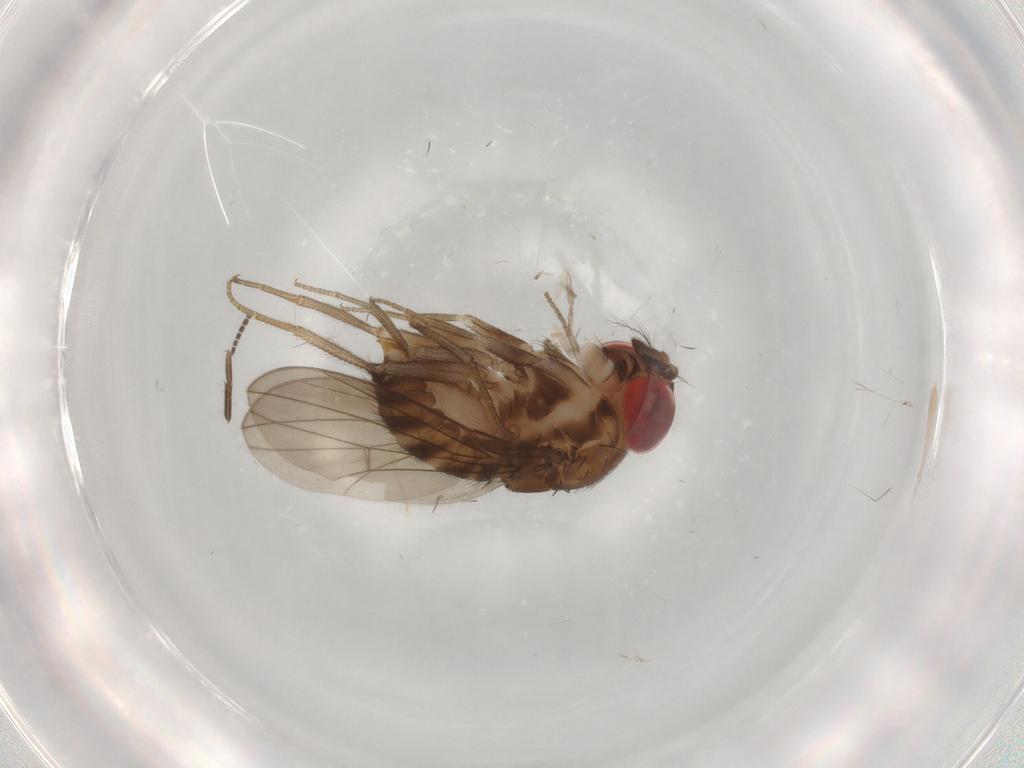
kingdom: Animalia
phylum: Arthropoda
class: Insecta
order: Diptera
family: Drosophilidae
